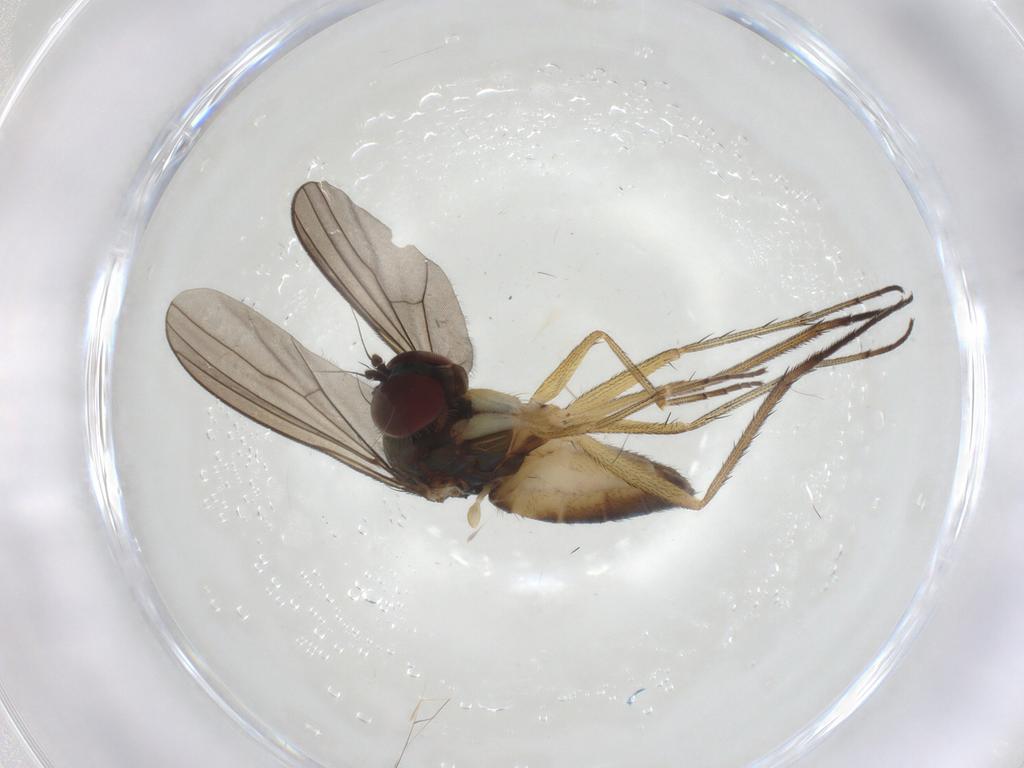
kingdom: Animalia
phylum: Arthropoda
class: Insecta
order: Diptera
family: Dolichopodidae
